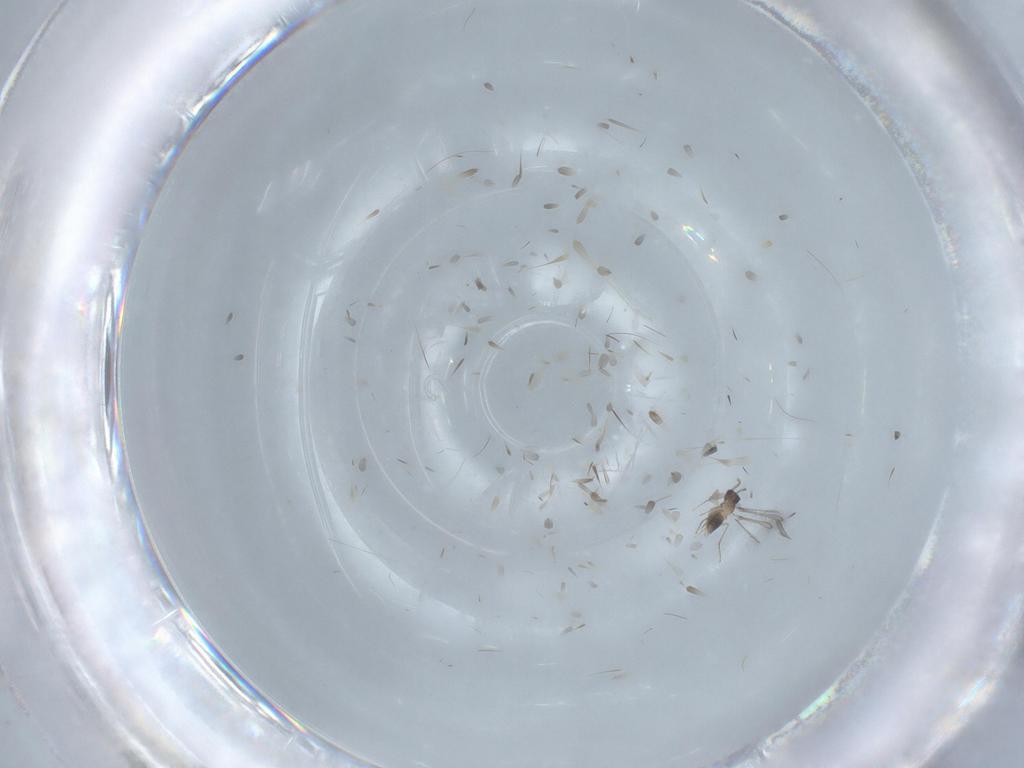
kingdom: Animalia
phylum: Arthropoda
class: Insecta
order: Hymenoptera
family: Mymaridae
